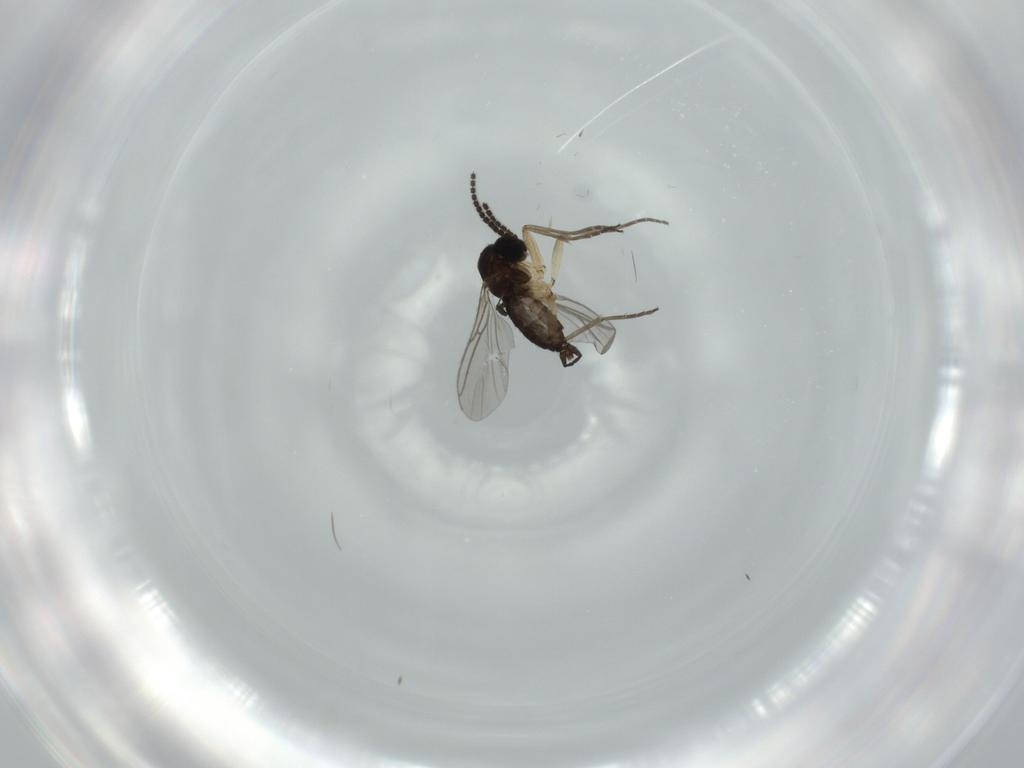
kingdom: Animalia
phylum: Arthropoda
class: Insecta
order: Diptera
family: Sciaridae
